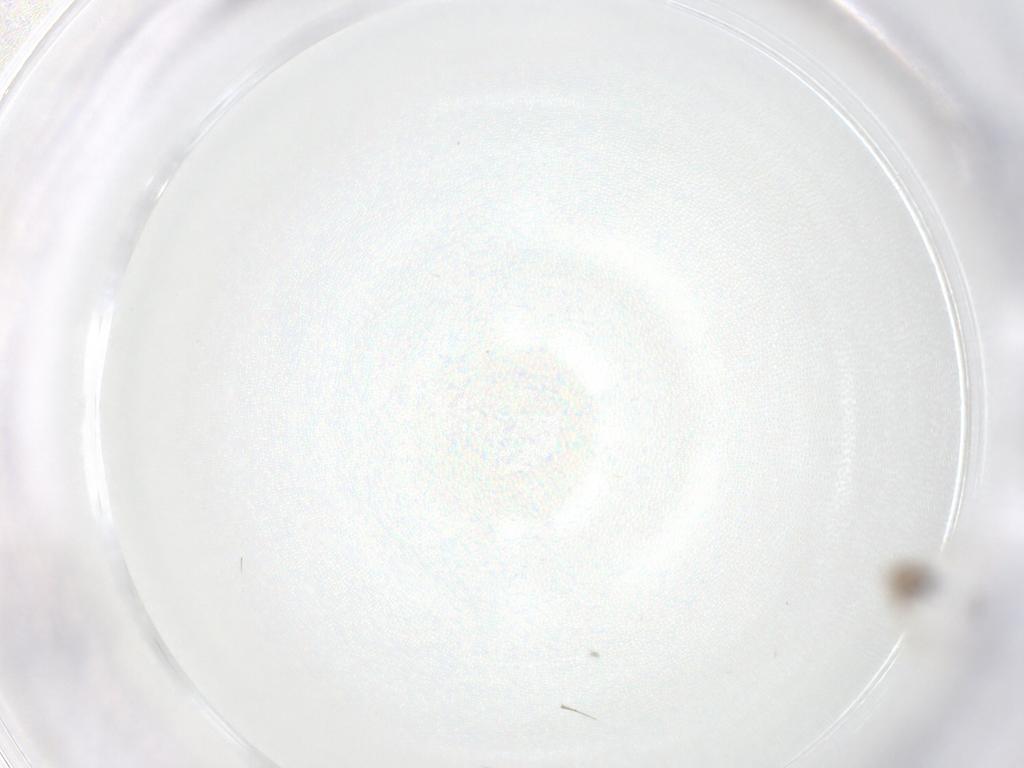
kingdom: Animalia
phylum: Arthropoda
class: Insecta
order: Diptera
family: Cecidomyiidae
